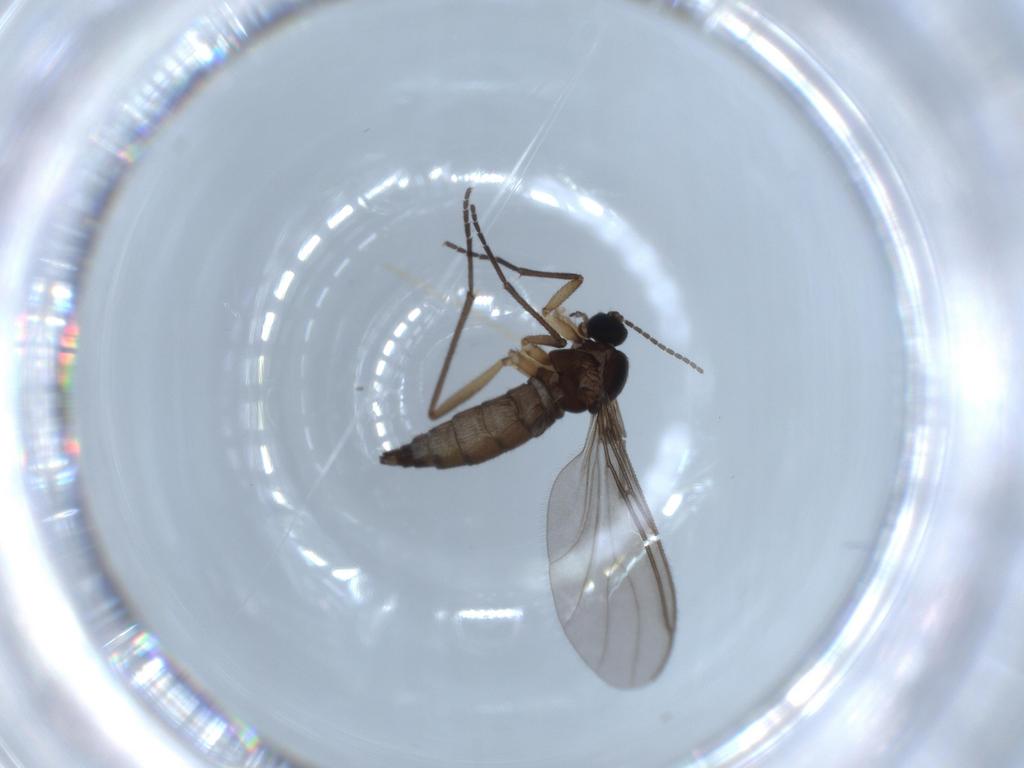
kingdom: Animalia
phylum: Arthropoda
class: Insecta
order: Diptera
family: Sciaridae
